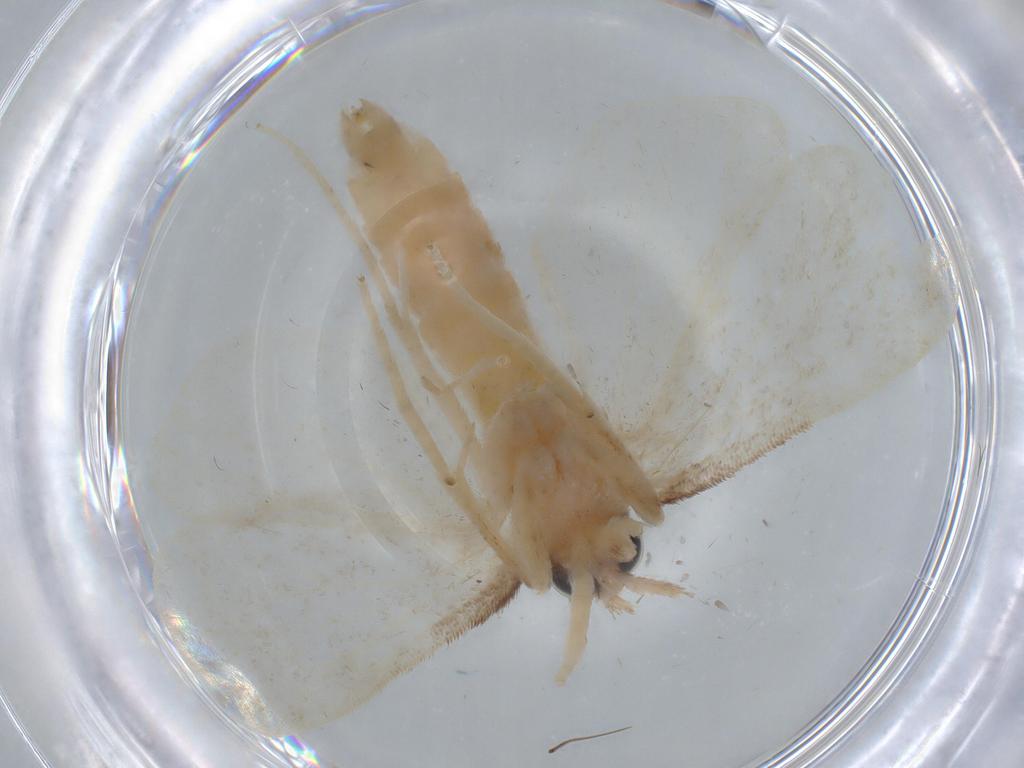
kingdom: Animalia
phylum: Arthropoda
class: Insecta
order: Lepidoptera
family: Crambidae
